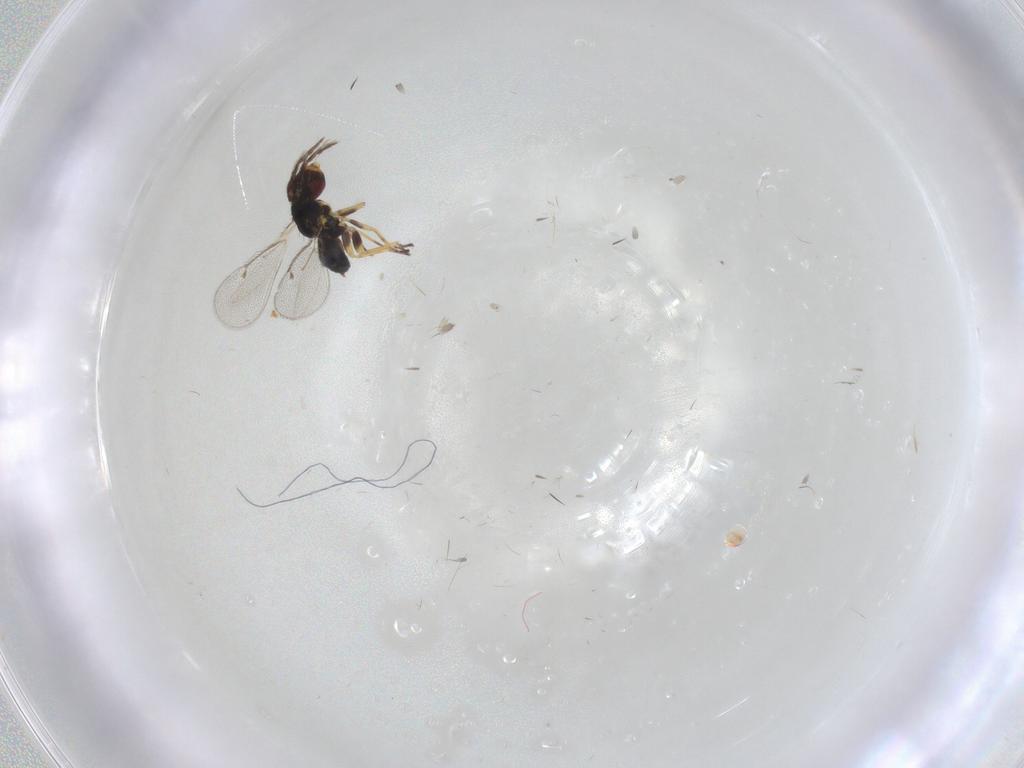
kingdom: Animalia
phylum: Arthropoda
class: Insecta
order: Hymenoptera
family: Eulophidae
